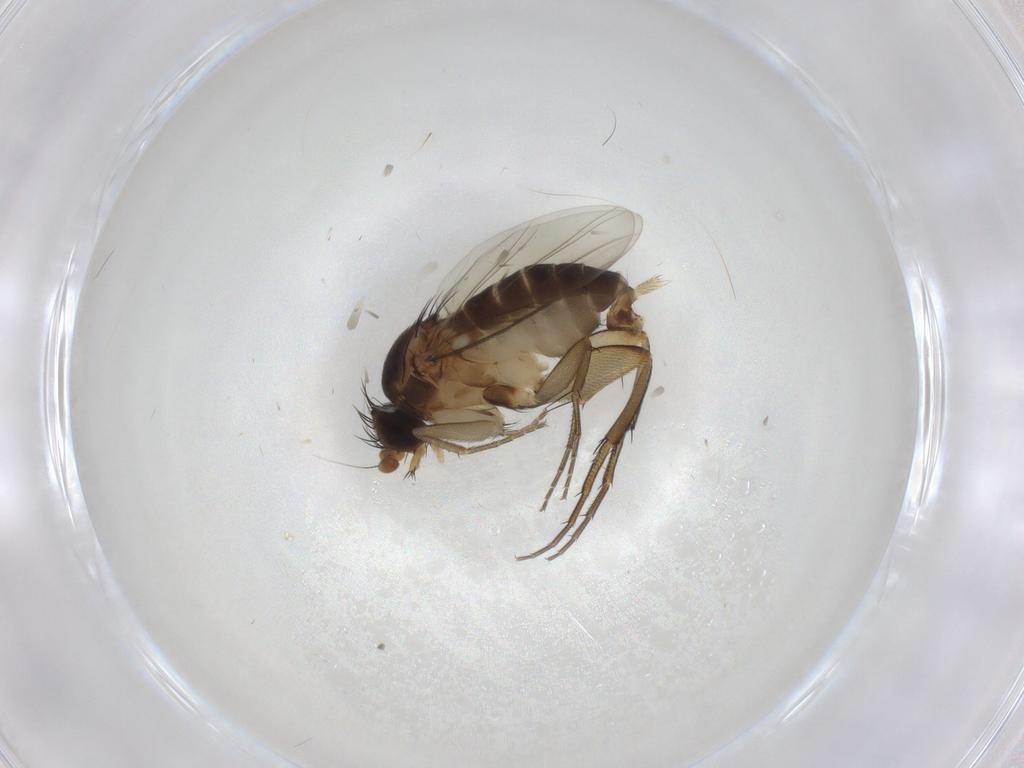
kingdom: Animalia
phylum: Arthropoda
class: Insecta
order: Diptera
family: Phoridae
